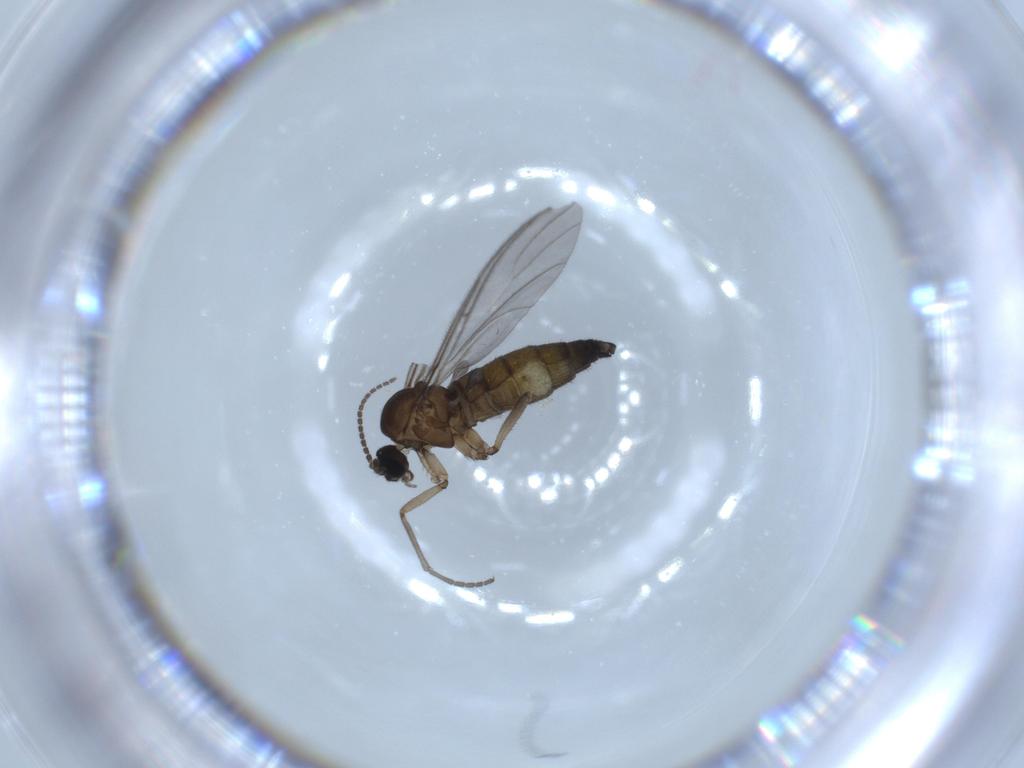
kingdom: Animalia
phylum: Arthropoda
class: Insecta
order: Diptera
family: Sciaridae
